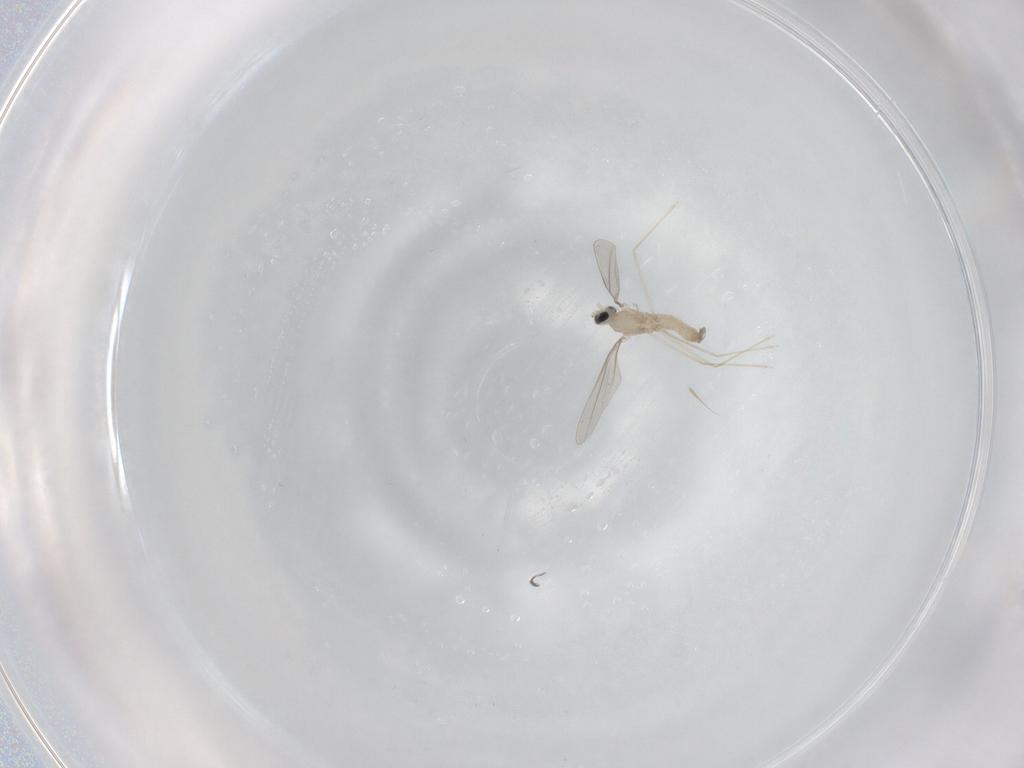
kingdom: Animalia
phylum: Arthropoda
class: Insecta
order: Diptera
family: Cecidomyiidae
